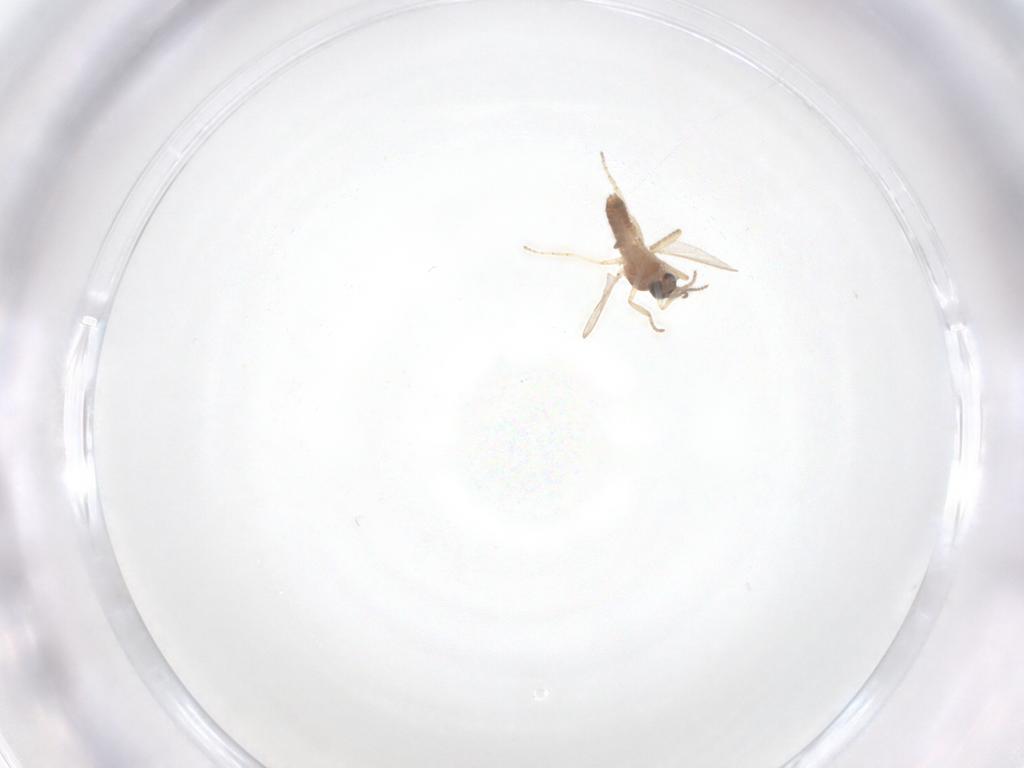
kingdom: Animalia
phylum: Arthropoda
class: Insecta
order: Diptera
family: Ceratopogonidae
